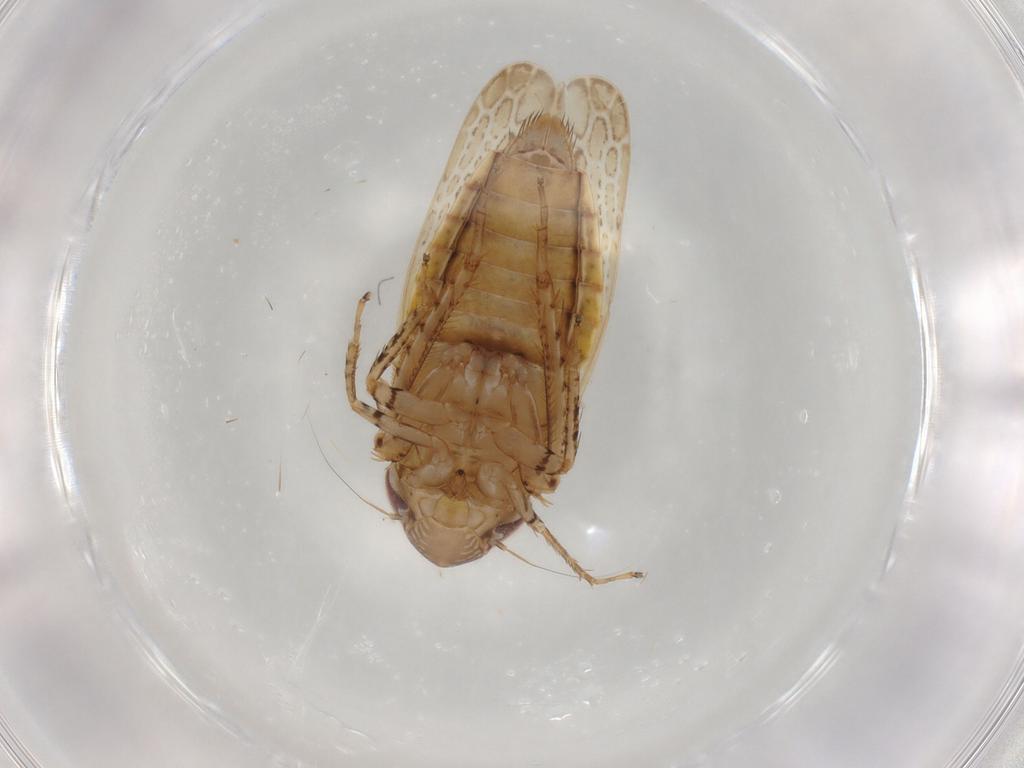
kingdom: Animalia
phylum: Arthropoda
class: Insecta
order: Hemiptera
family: Cicadellidae
